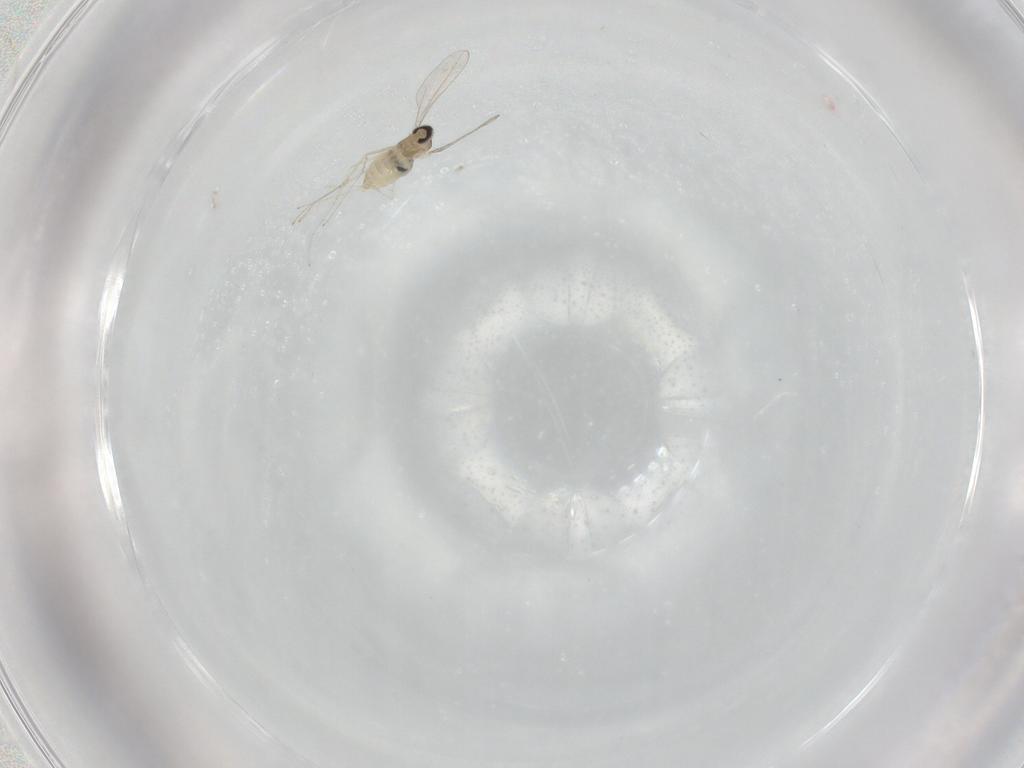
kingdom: Animalia
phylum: Arthropoda
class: Insecta
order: Diptera
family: Cecidomyiidae
